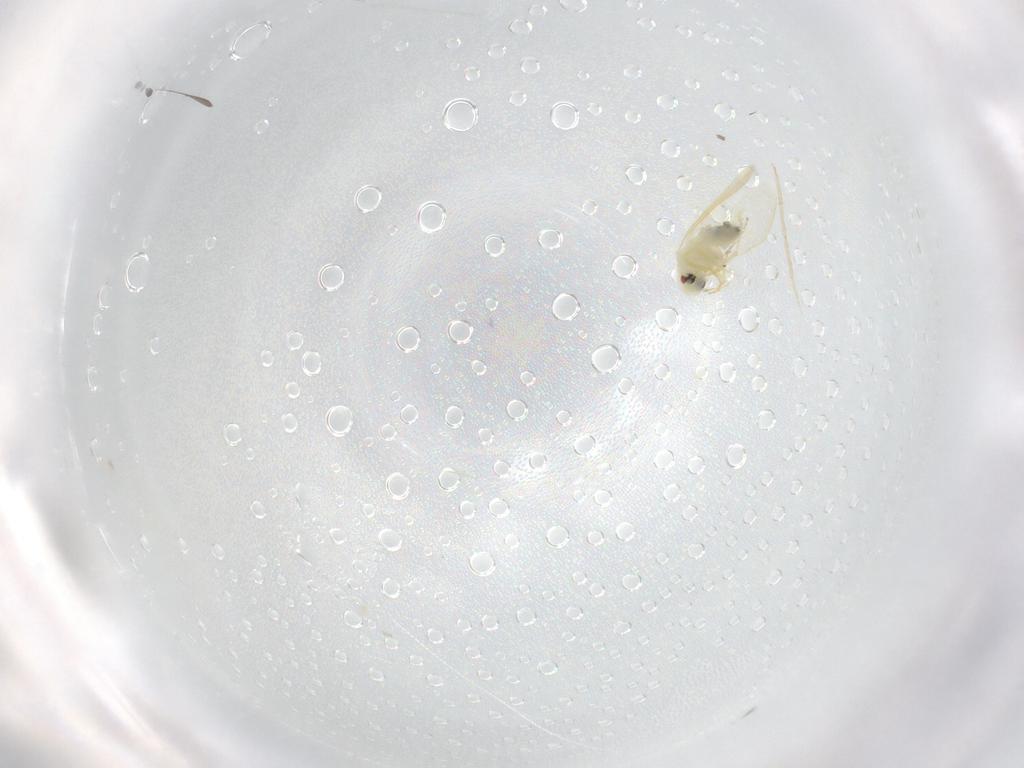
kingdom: Animalia
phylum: Arthropoda
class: Insecta
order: Hemiptera
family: Aleyrodidae
